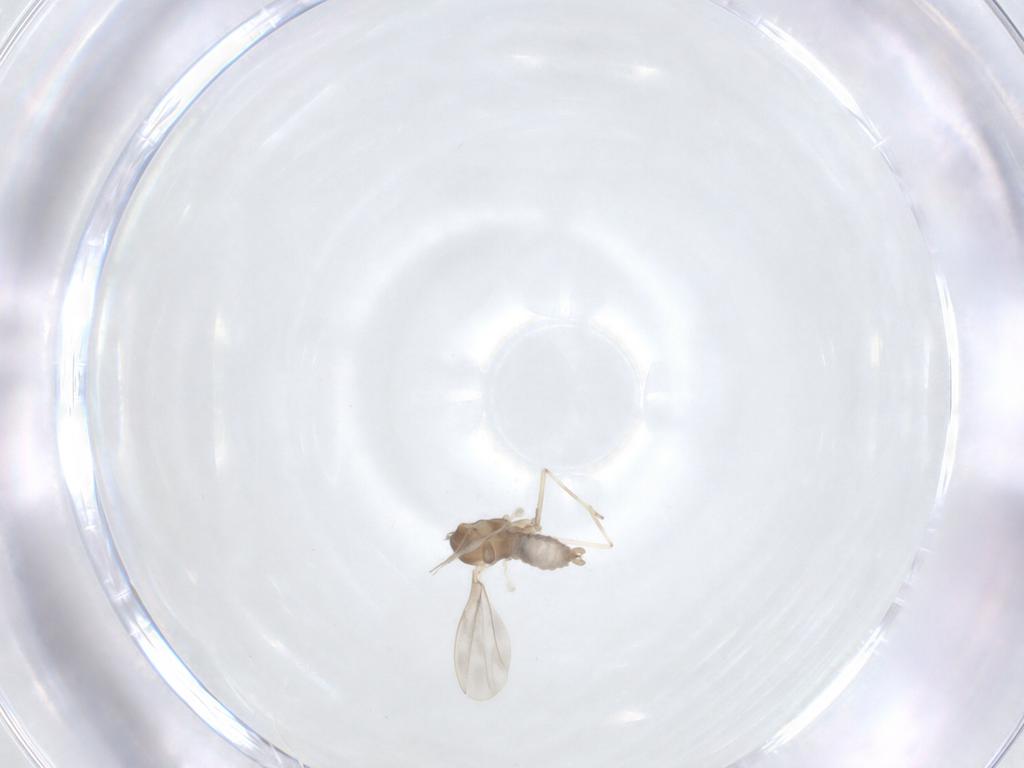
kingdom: Animalia
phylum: Arthropoda
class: Insecta
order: Diptera
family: Cecidomyiidae
